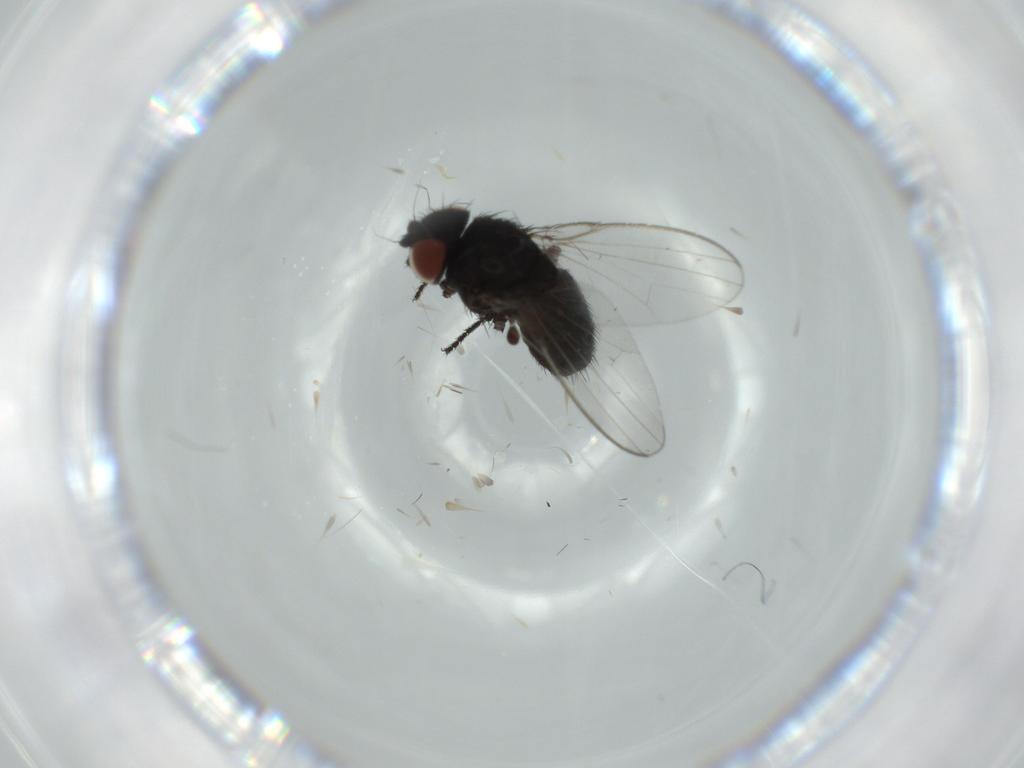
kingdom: Animalia
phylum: Arthropoda
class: Insecta
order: Diptera
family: Milichiidae
